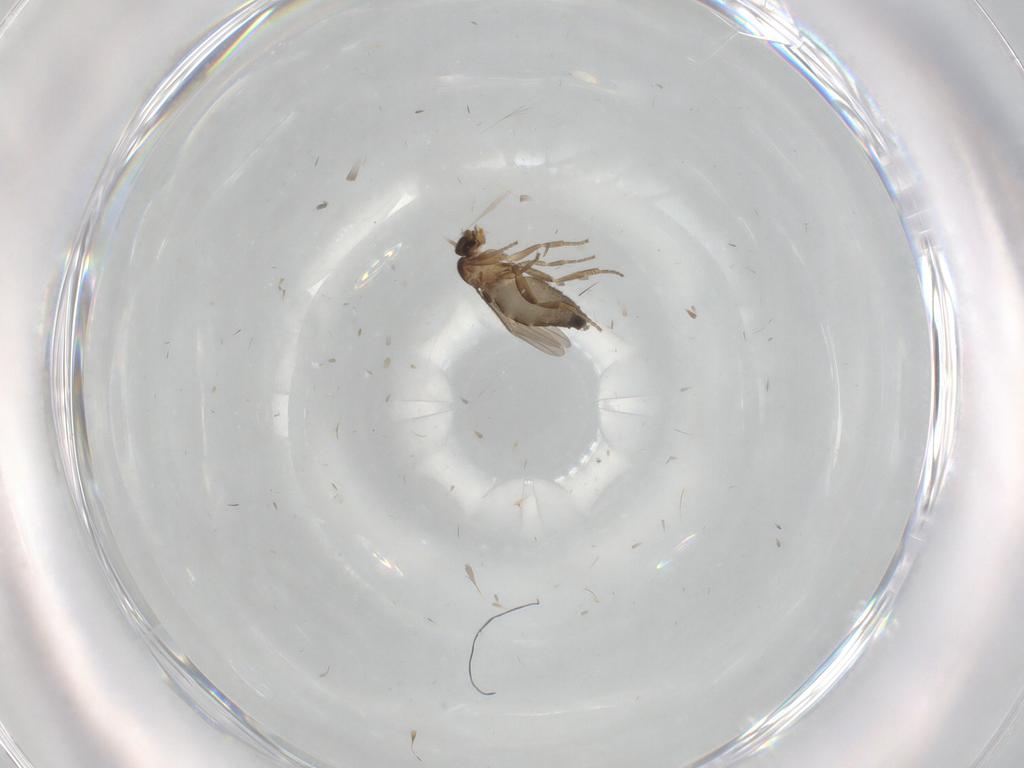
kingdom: Animalia
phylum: Arthropoda
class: Insecta
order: Diptera
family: Phoridae
